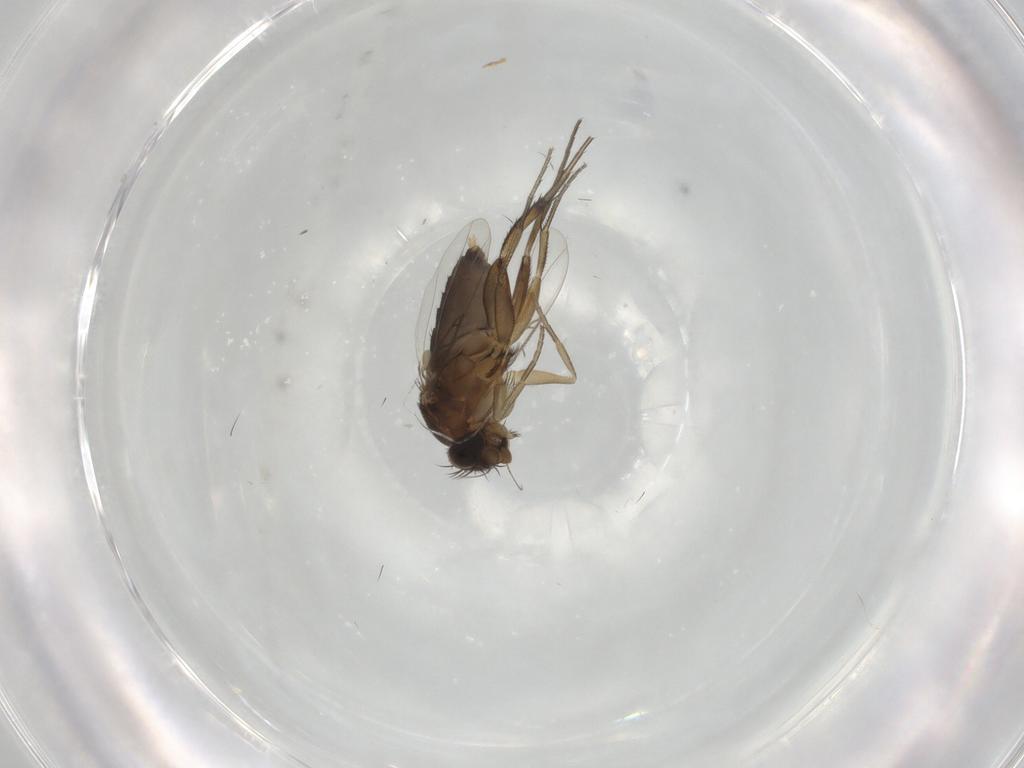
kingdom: Animalia
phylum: Arthropoda
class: Insecta
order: Diptera
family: Phoridae
